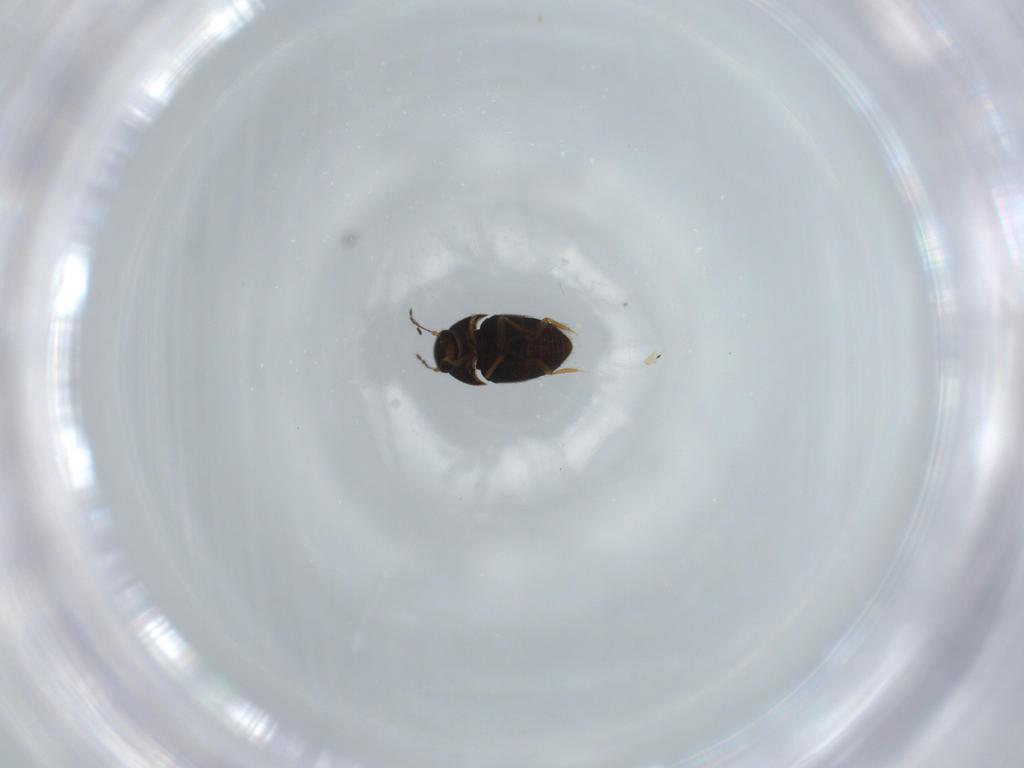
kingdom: Animalia
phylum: Arthropoda
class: Insecta
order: Coleoptera
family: Ptiliidae
